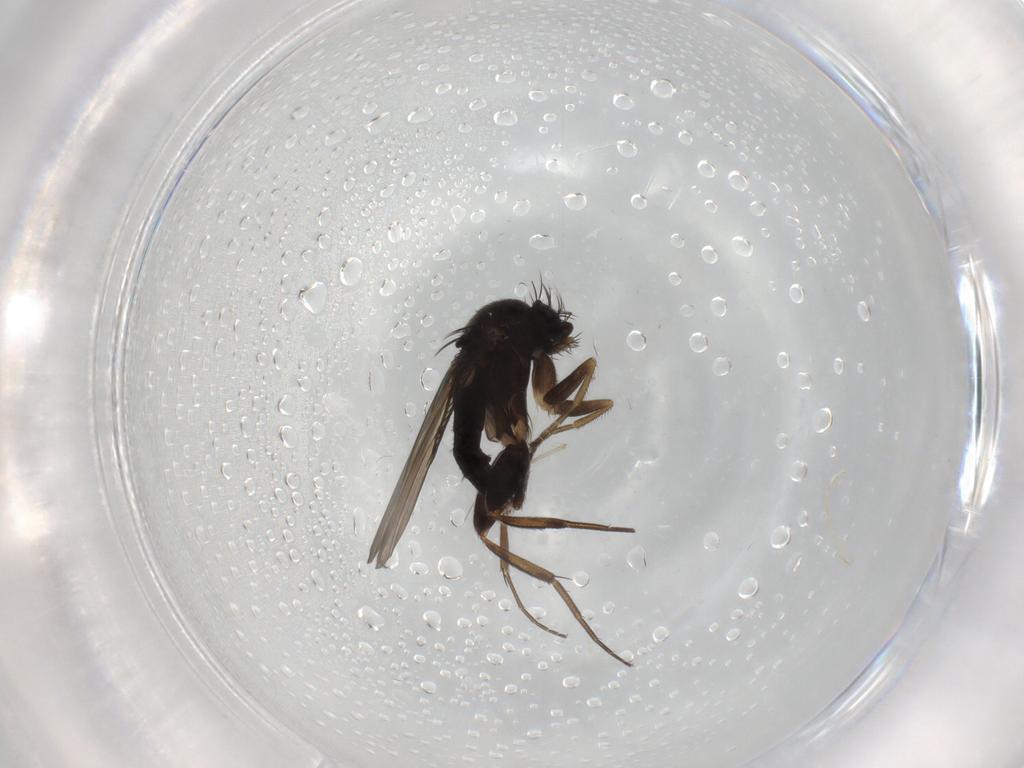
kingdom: Animalia
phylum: Arthropoda
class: Insecta
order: Diptera
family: Phoridae
